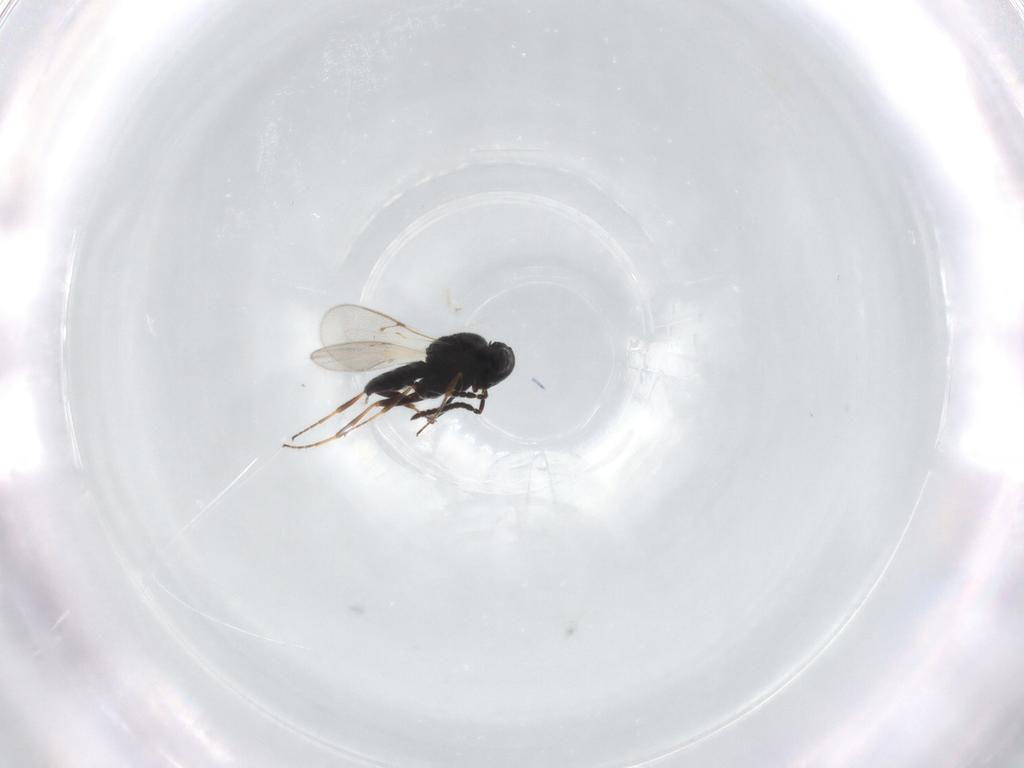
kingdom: Animalia
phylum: Arthropoda
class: Insecta
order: Hymenoptera
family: Scelionidae
